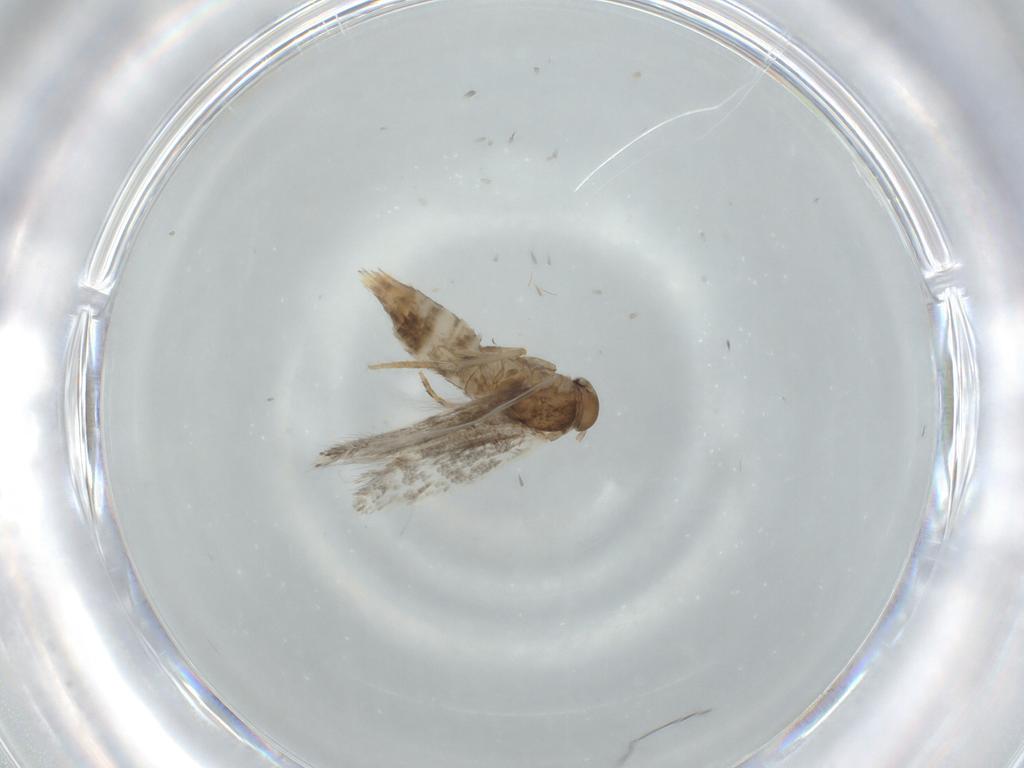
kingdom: Animalia
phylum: Arthropoda
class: Insecta
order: Lepidoptera
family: Elachistidae
